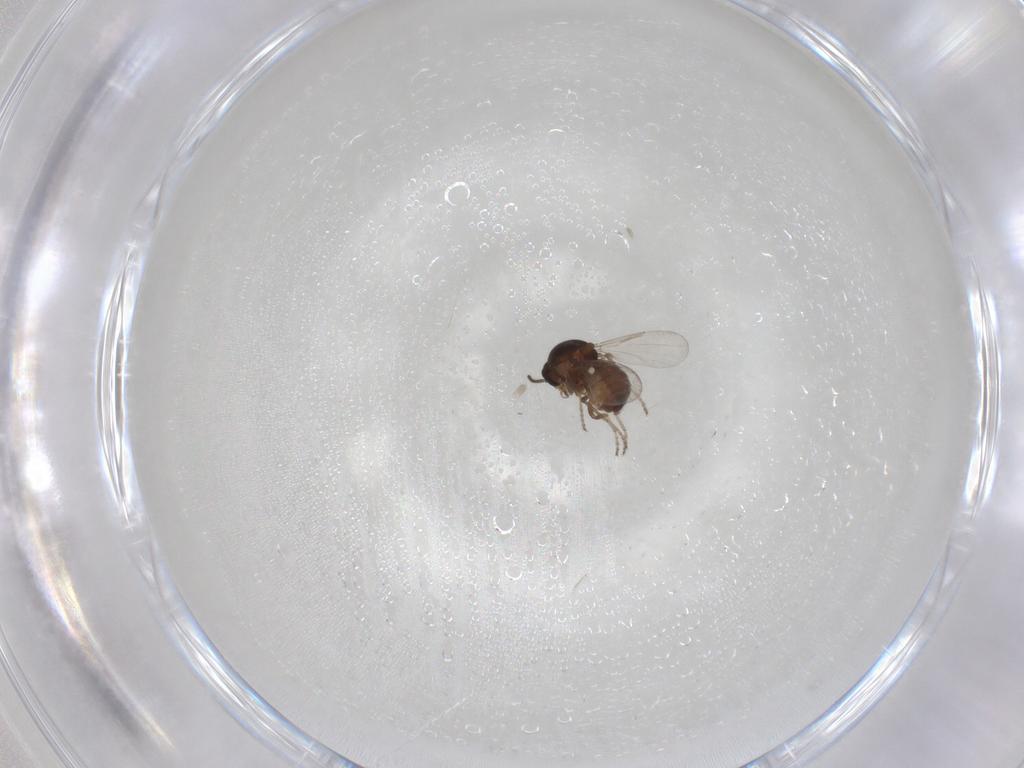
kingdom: Animalia
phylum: Arthropoda
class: Insecta
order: Diptera
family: Ceratopogonidae
